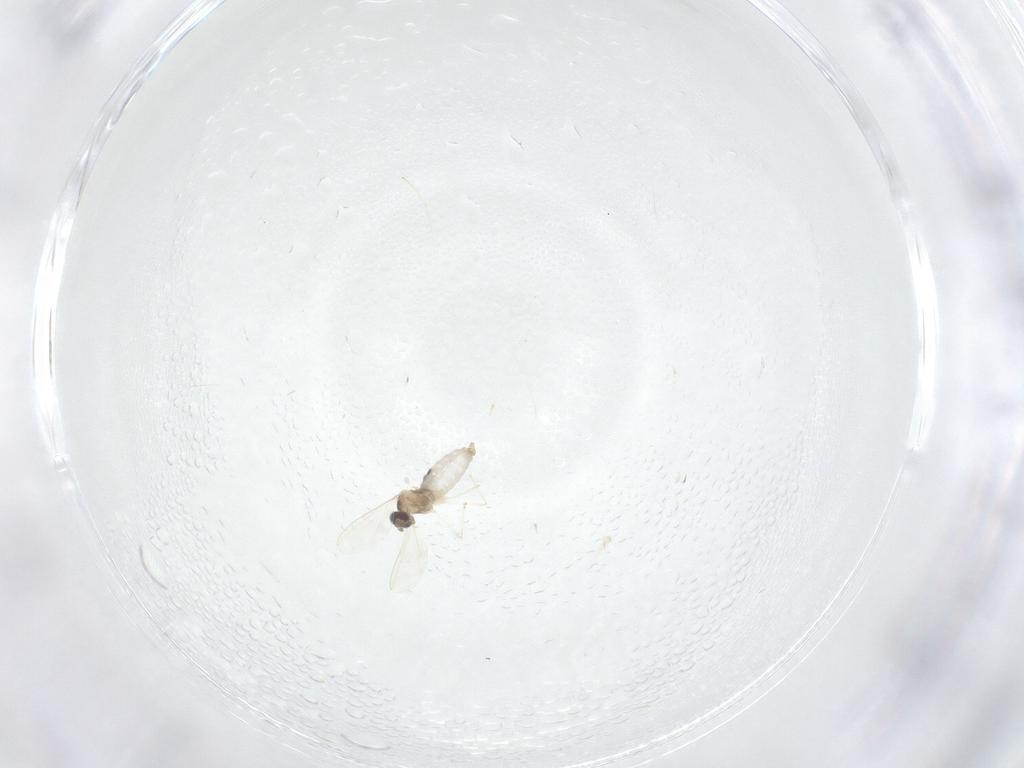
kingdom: Animalia
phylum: Arthropoda
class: Insecta
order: Diptera
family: Cecidomyiidae
